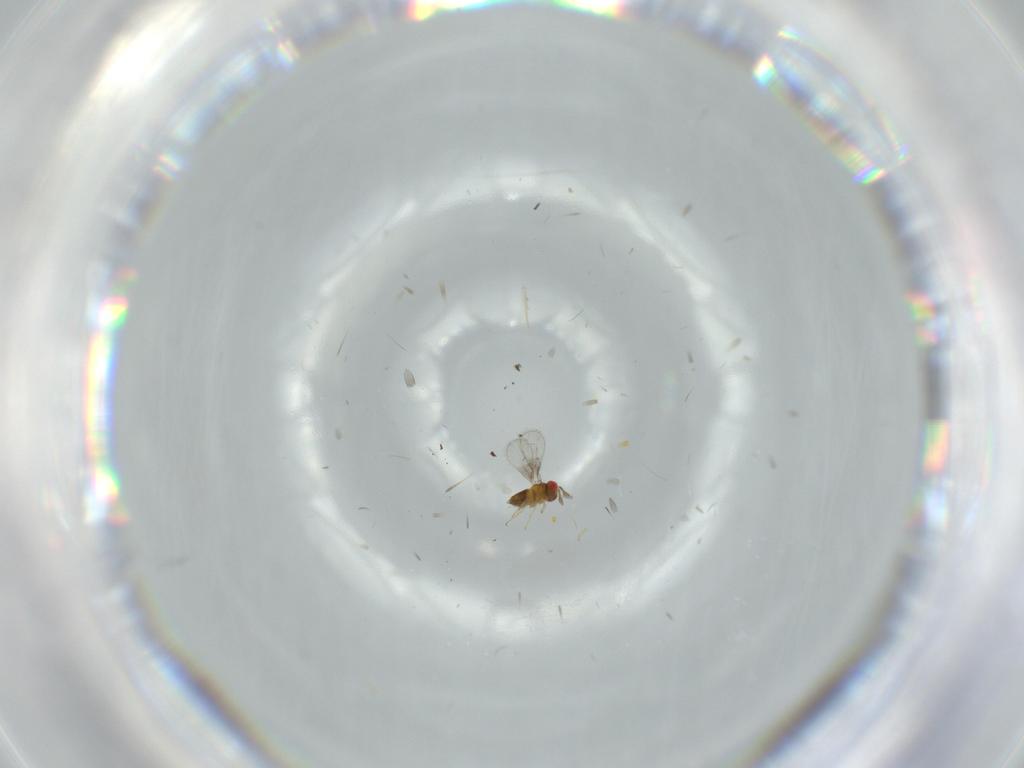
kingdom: Animalia
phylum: Arthropoda
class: Insecta
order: Hymenoptera
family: Trichogrammatidae
